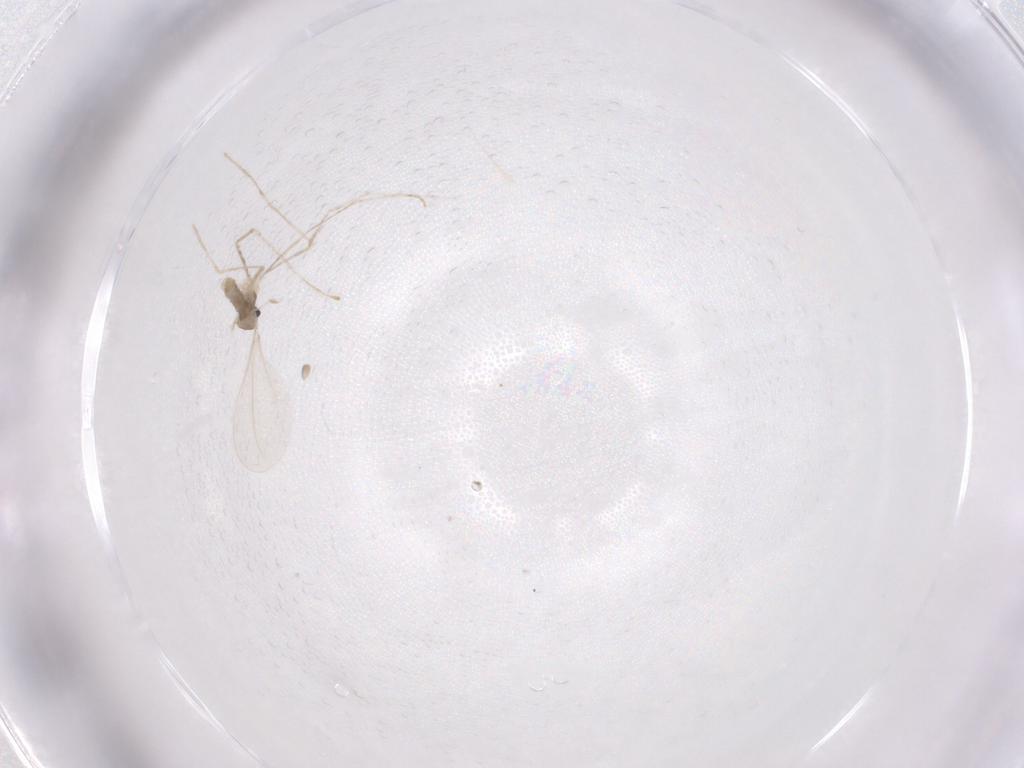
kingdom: Animalia
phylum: Arthropoda
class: Insecta
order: Diptera
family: Cecidomyiidae
